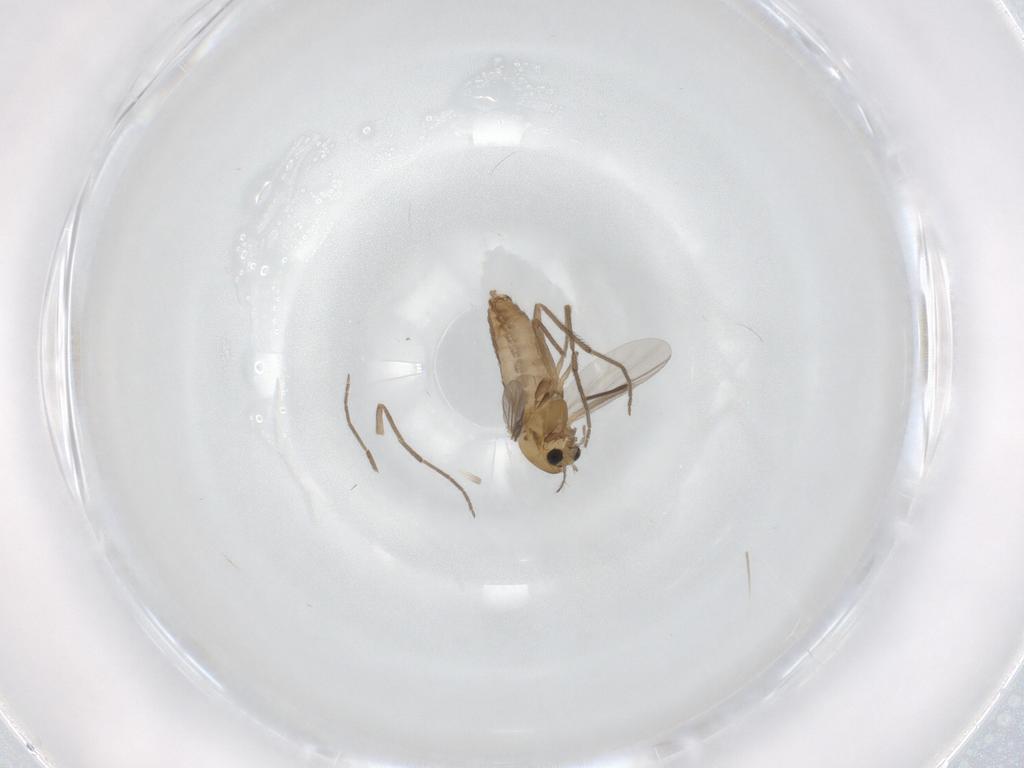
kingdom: Animalia
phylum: Arthropoda
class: Insecta
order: Diptera
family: Chironomidae
